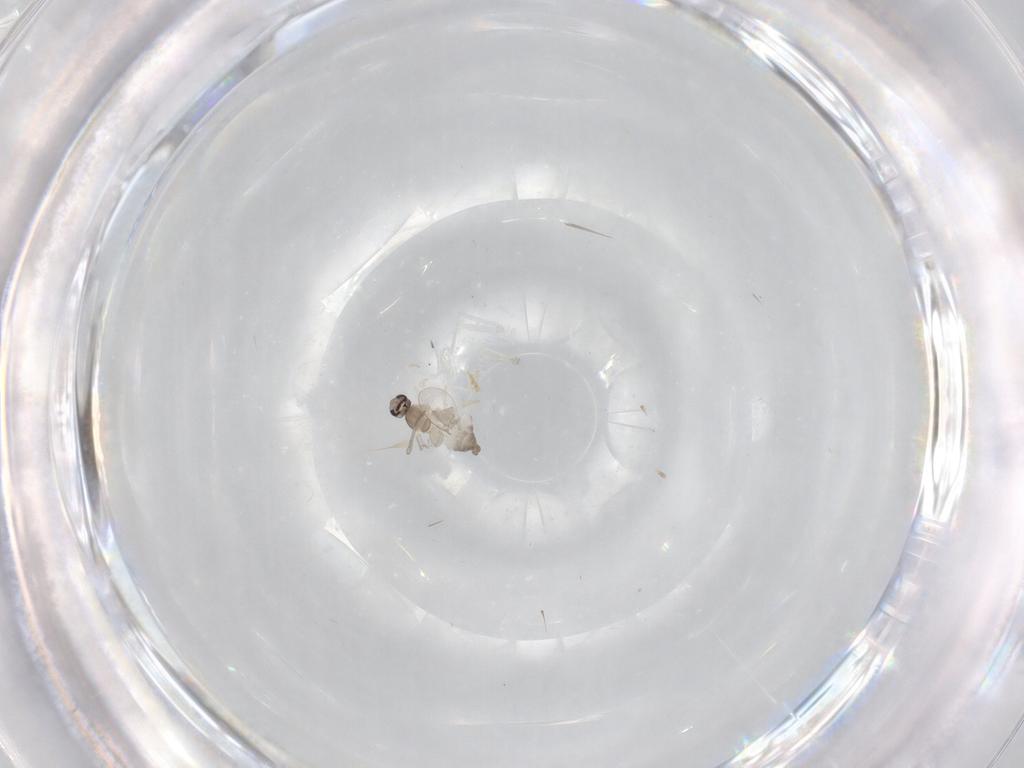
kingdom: Animalia
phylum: Arthropoda
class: Insecta
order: Diptera
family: Cecidomyiidae
